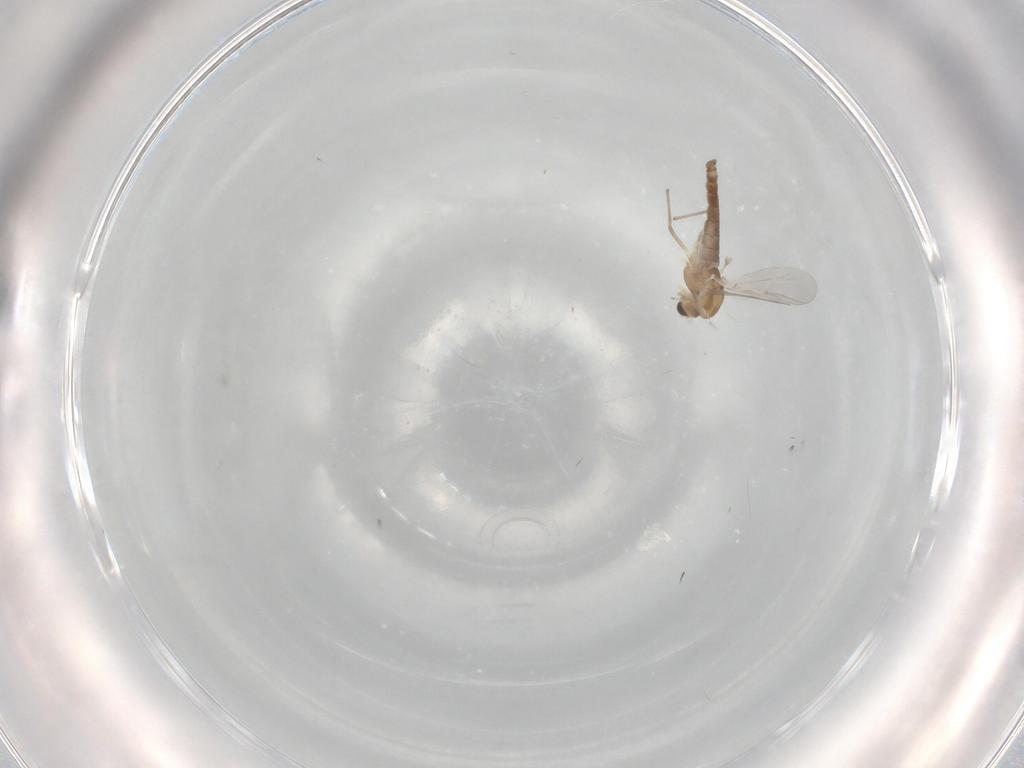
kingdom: Animalia
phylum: Arthropoda
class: Insecta
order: Diptera
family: Chironomidae
